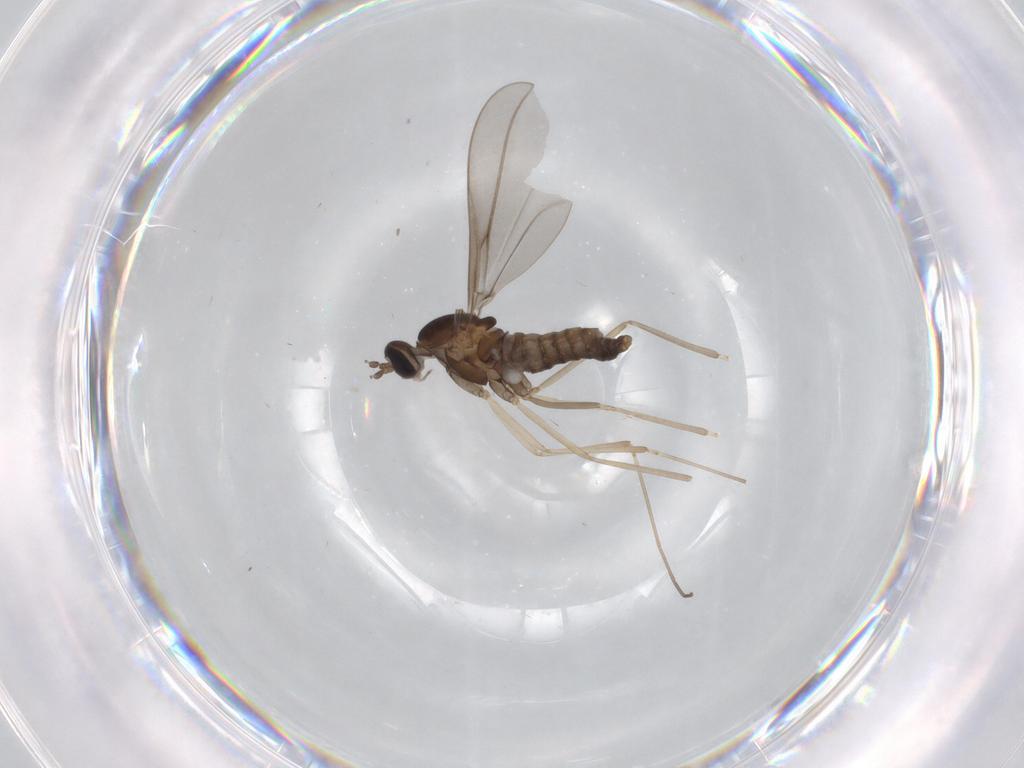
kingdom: Animalia
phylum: Arthropoda
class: Insecta
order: Diptera
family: Cecidomyiidae
